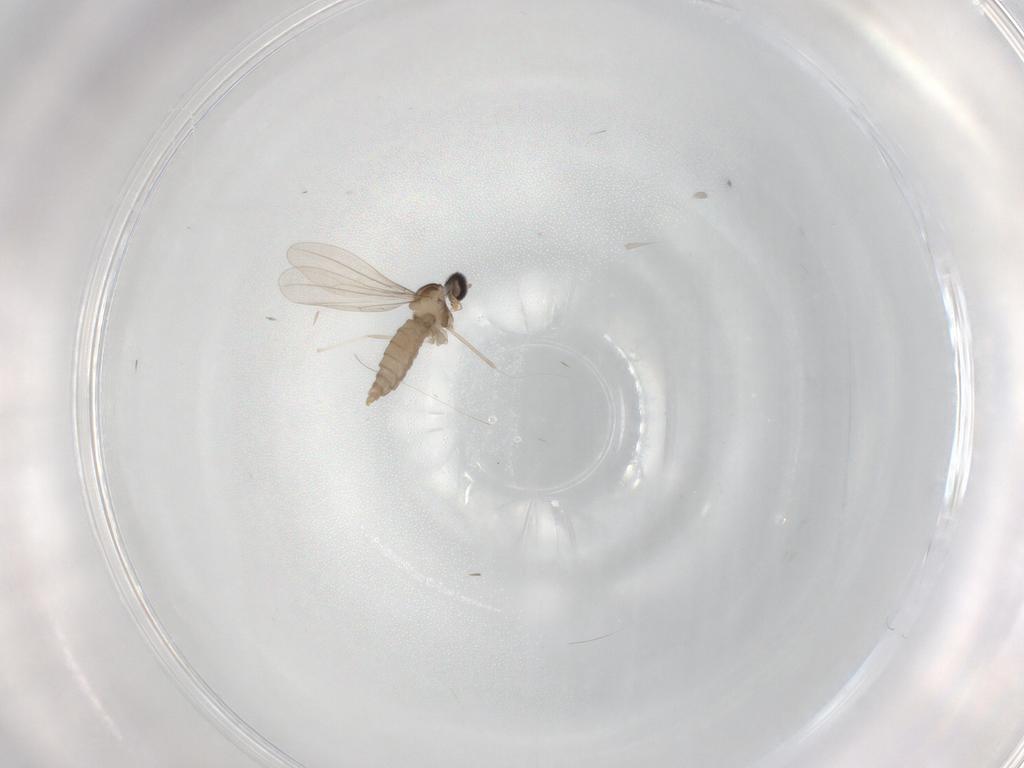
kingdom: Animalia
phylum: Arthropoda
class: Insecta
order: Diptera
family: Cecidomyiidae
